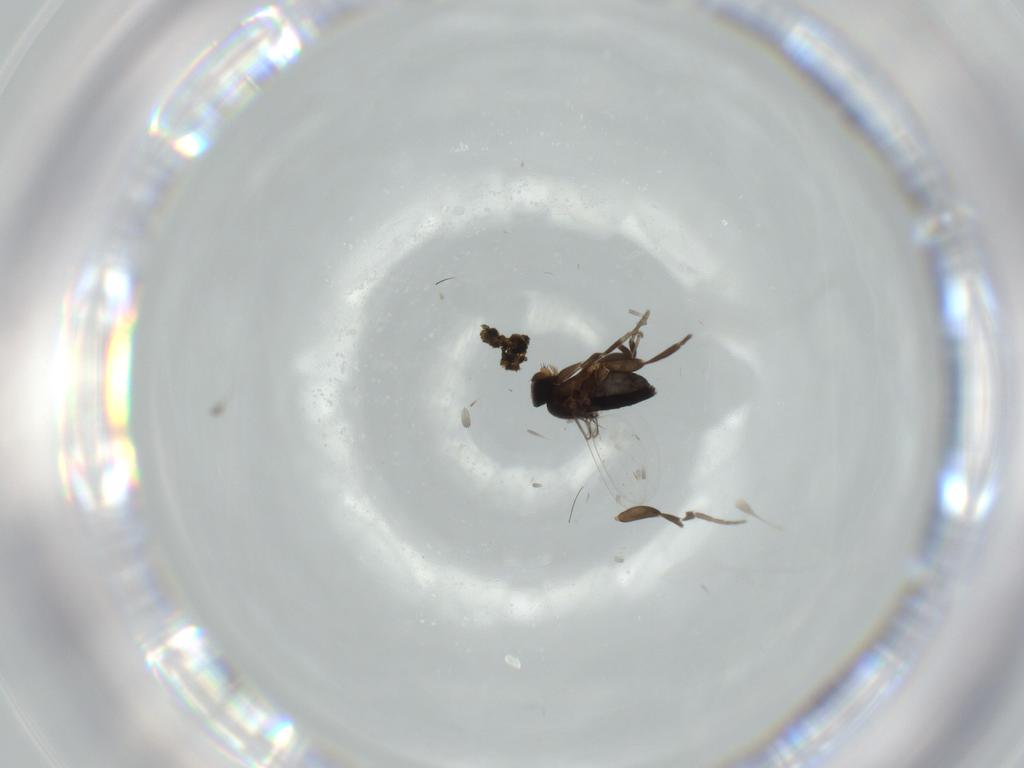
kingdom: Animalia
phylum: Arthropoda
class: Insecta
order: Diptera
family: Phoridae
